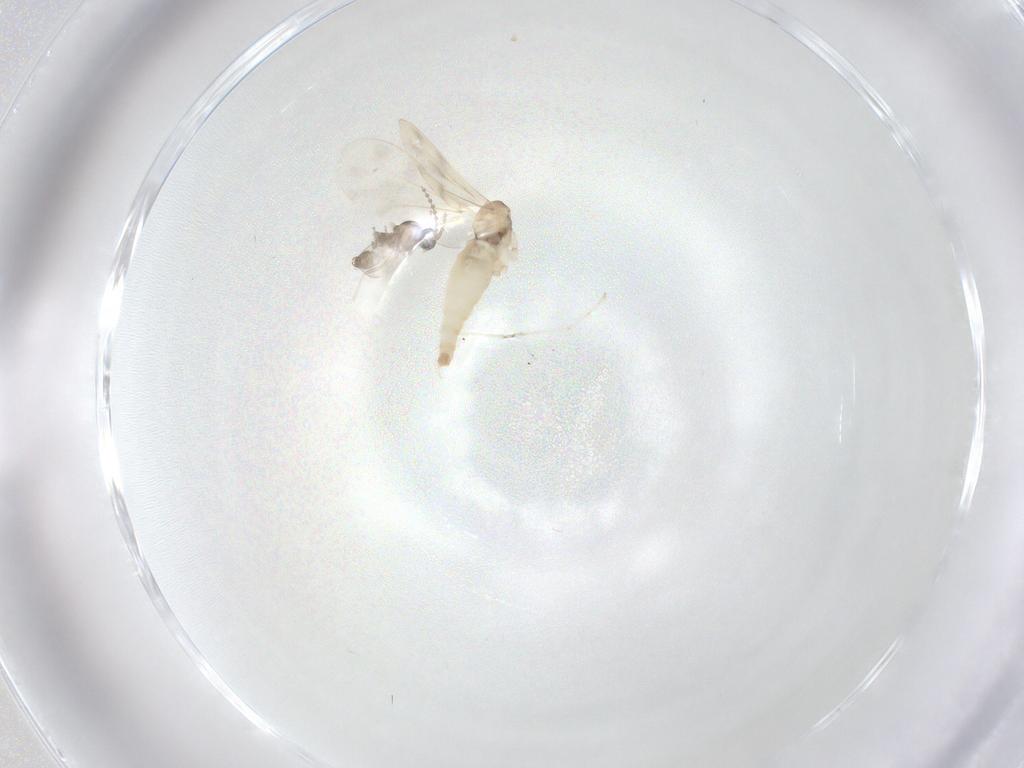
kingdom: Animalia
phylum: Arthropoda
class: Insecta
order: Diptera
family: Cecidomyiidae
